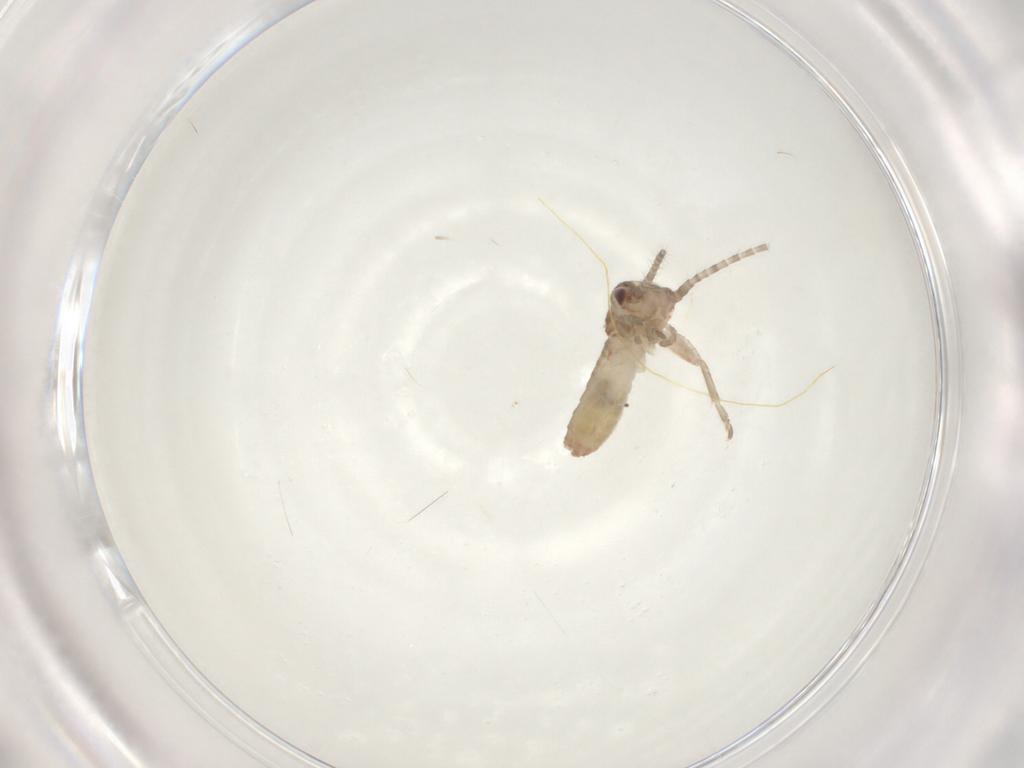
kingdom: Animalia
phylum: Arthropoda
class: Insecta
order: Orthoptera
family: Mogoplistidae
